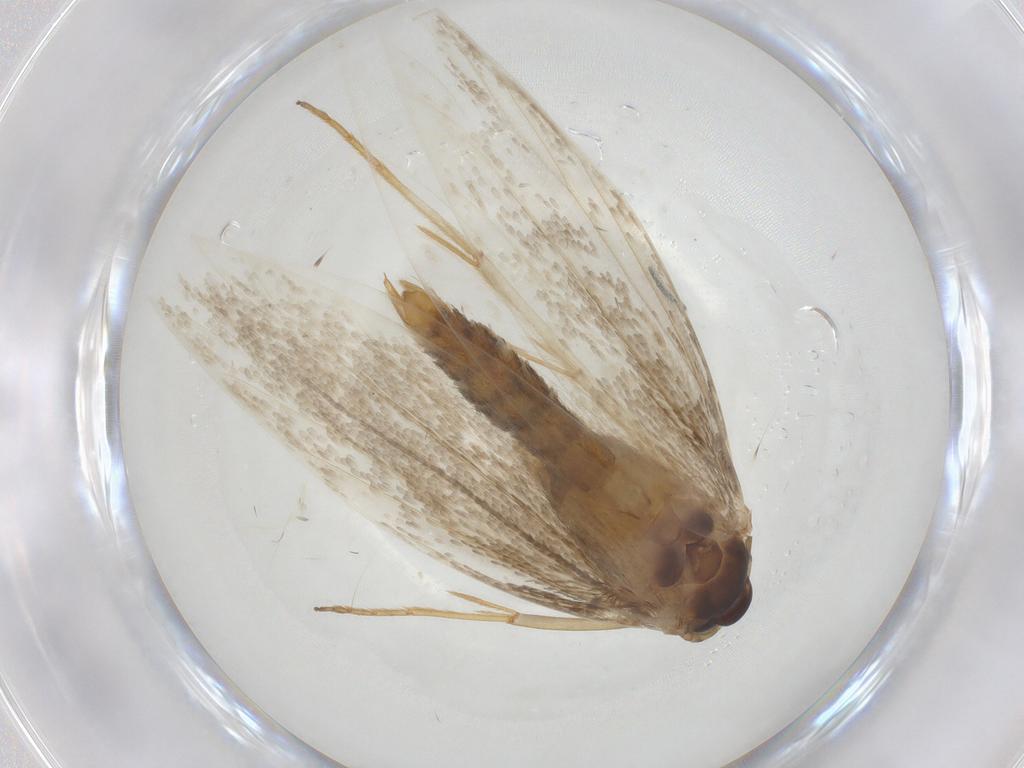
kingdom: Animalia
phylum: Arthropoda
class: Insecta
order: Lepidoptera
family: Erebidae
